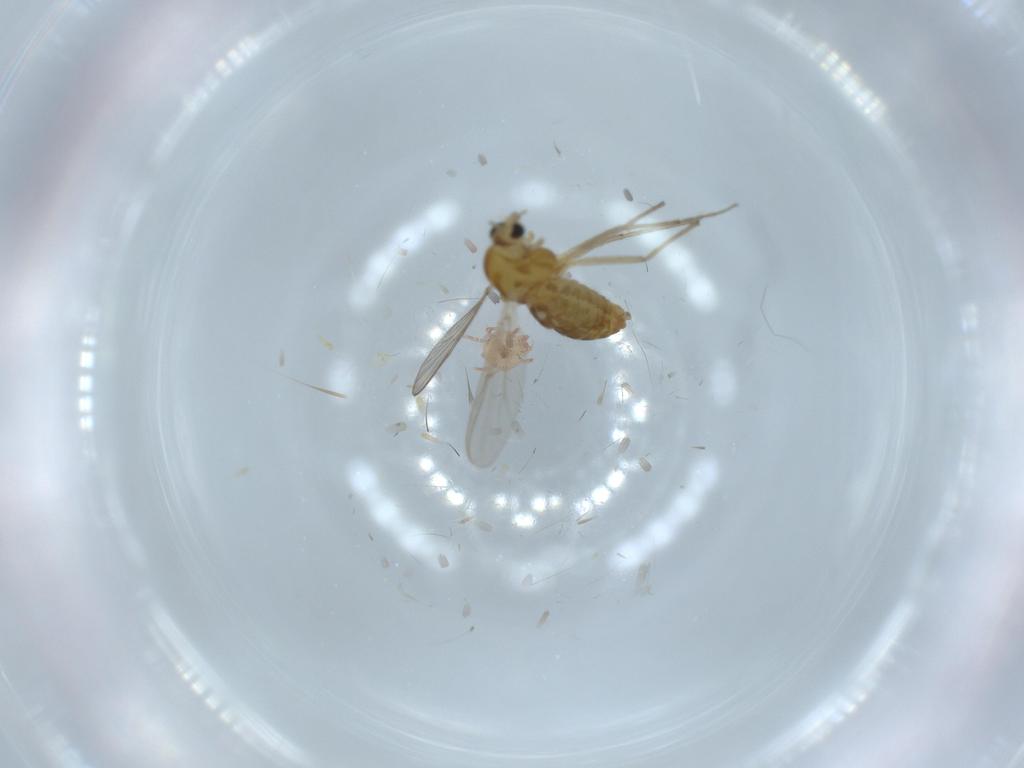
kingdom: Animalia
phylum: Arthropoda
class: Insecta
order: Diptera
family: Chironomidae
